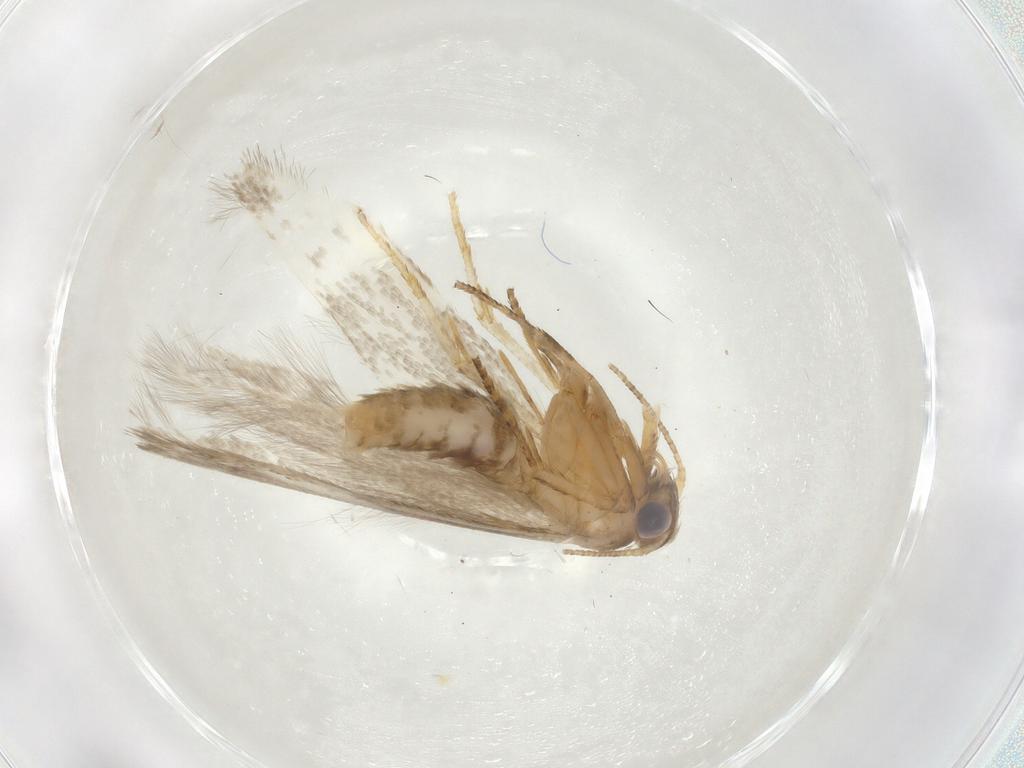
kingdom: Animalia
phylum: Arthropoda
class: Insecta
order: Lepidoptera
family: Blastobasidae
